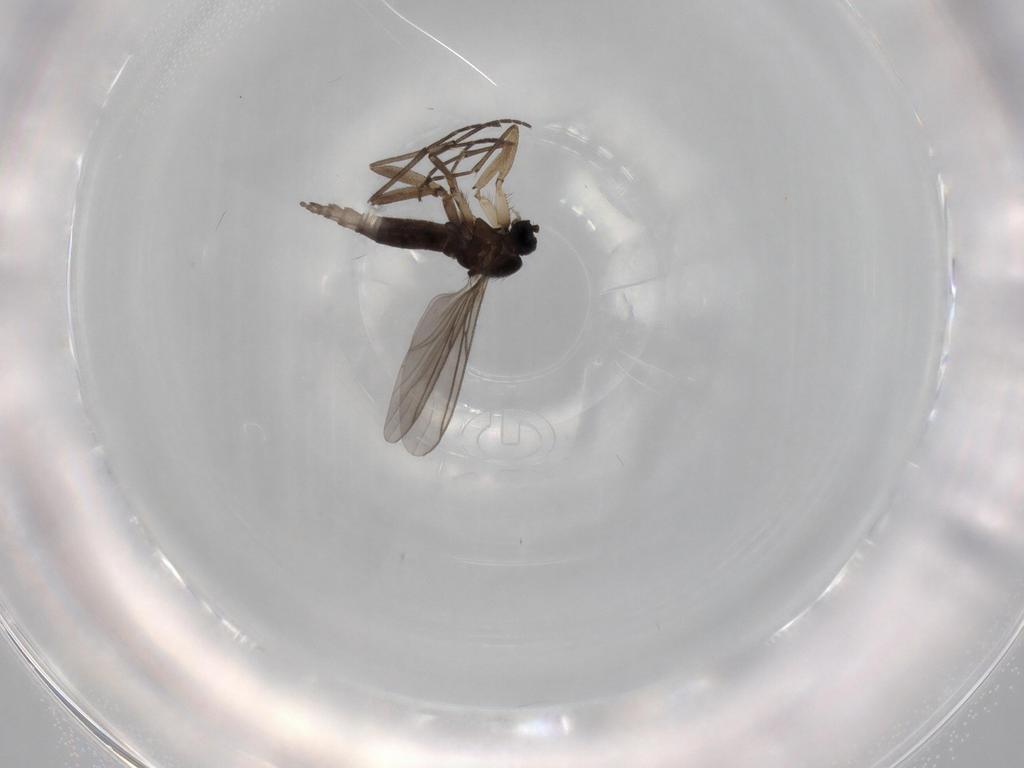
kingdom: Animalia
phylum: Arthropoda
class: Insecta
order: Diptera
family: Sciaridae
